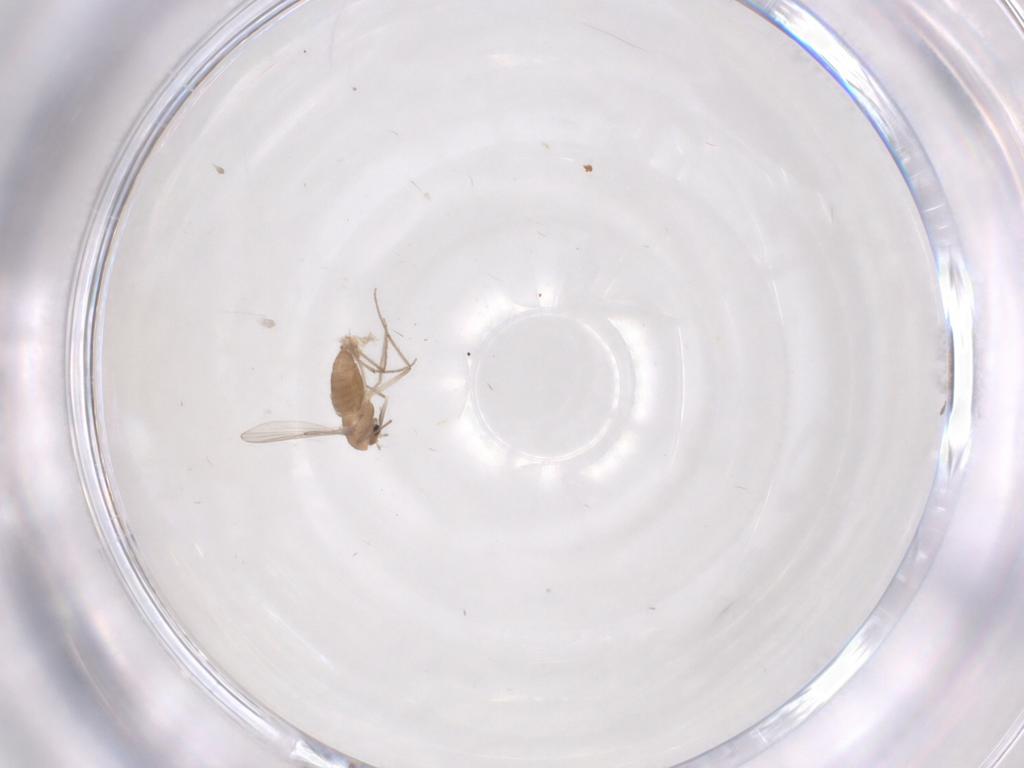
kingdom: Animalia
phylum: Arthropoda
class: Insecta
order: Diptera
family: Chironomidae
